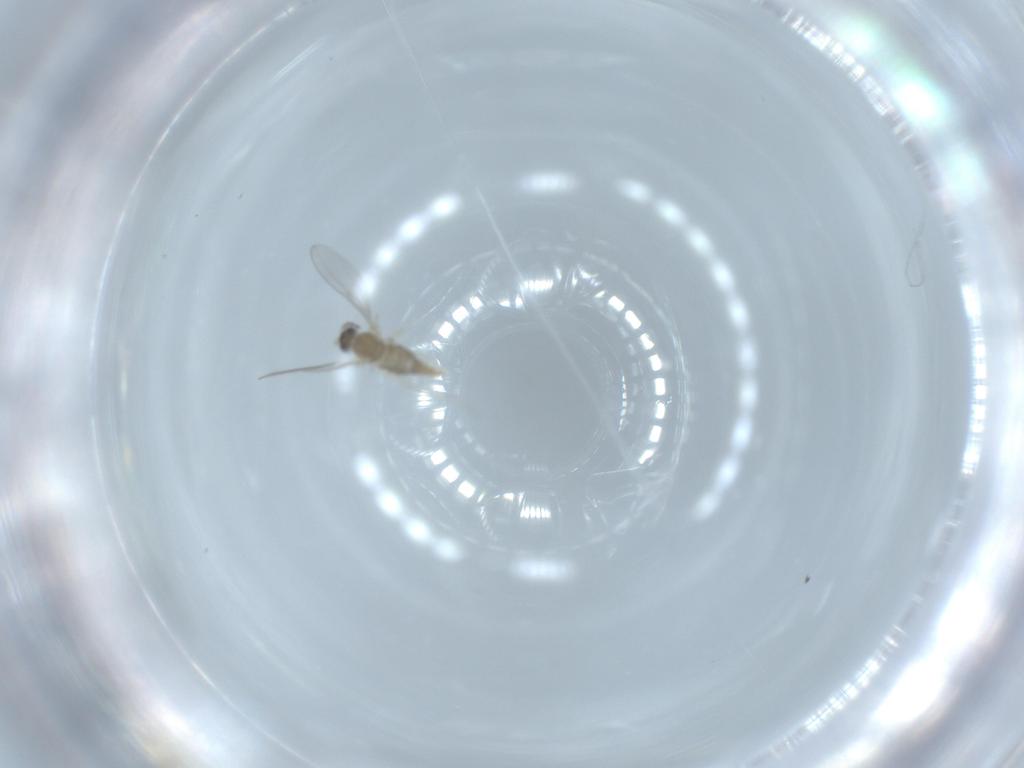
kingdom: Animalia
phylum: Arthropoda
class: Insecta
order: Diptera
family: Cecidomyiidae
